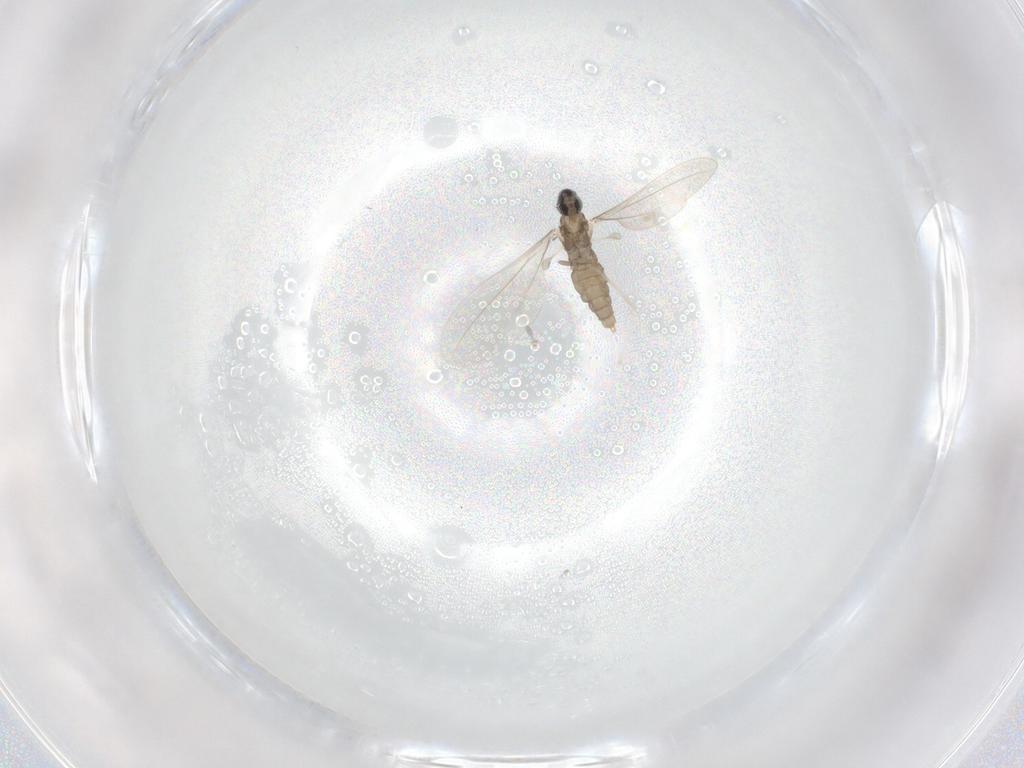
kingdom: Animalia
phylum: Arthropoda
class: Insecta
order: Diptera
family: Cecidomyiidae
